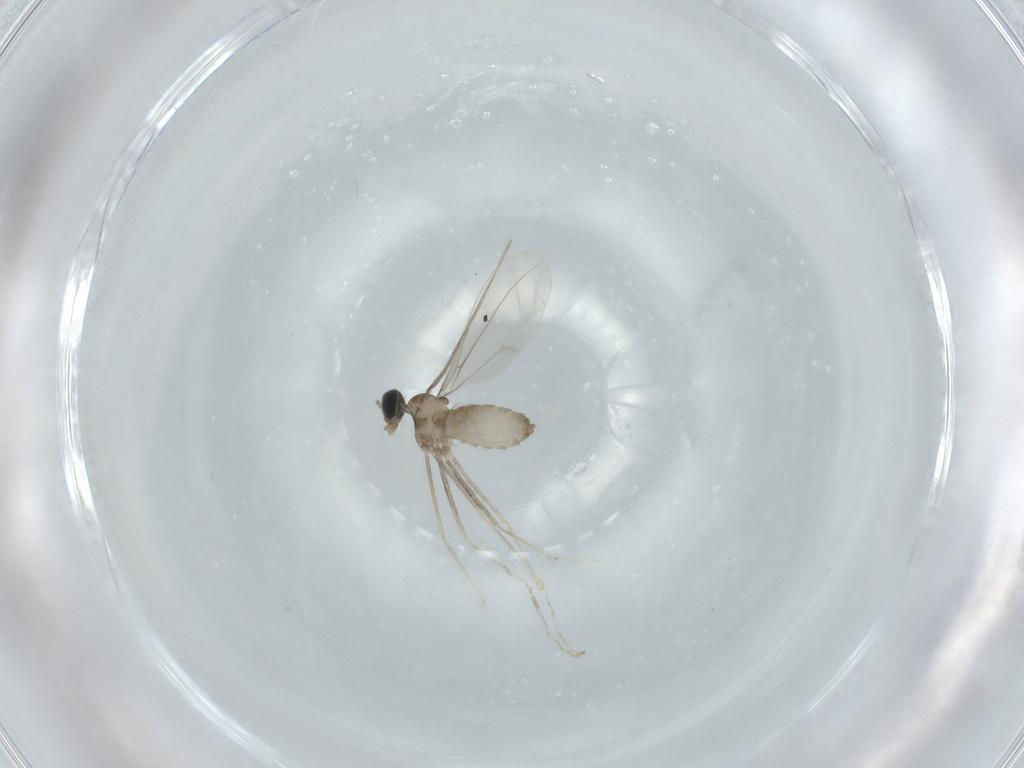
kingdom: Animalia
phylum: Arthropoda
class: Insecta
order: Diptera
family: Cecidomyiidae
